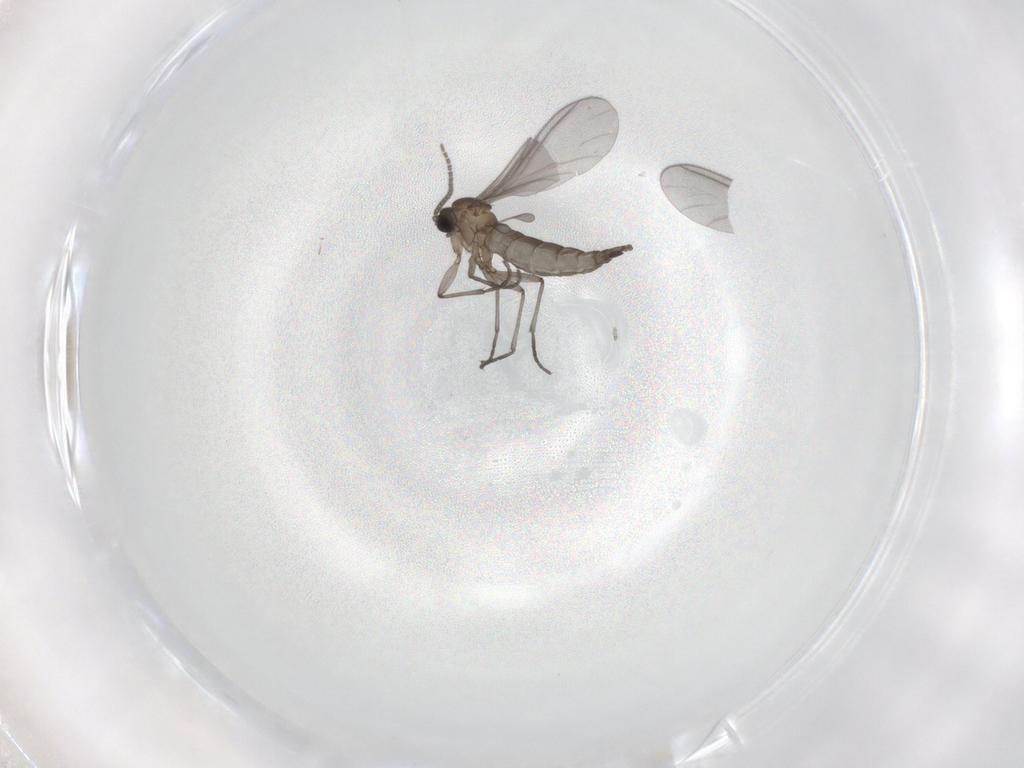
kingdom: Animalia
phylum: Arthropoda
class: Insecta
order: Diptera
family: Sciaridae
